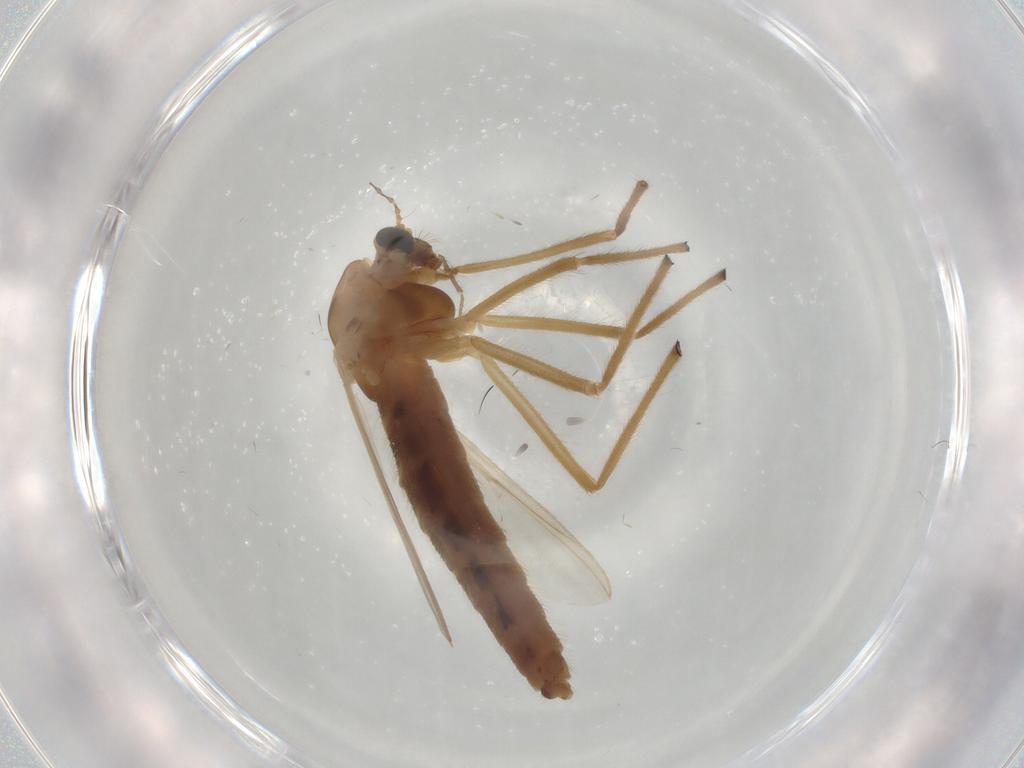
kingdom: Animalia
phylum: Arthropoda
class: Insecta
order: Diptera
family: Chironomidae
